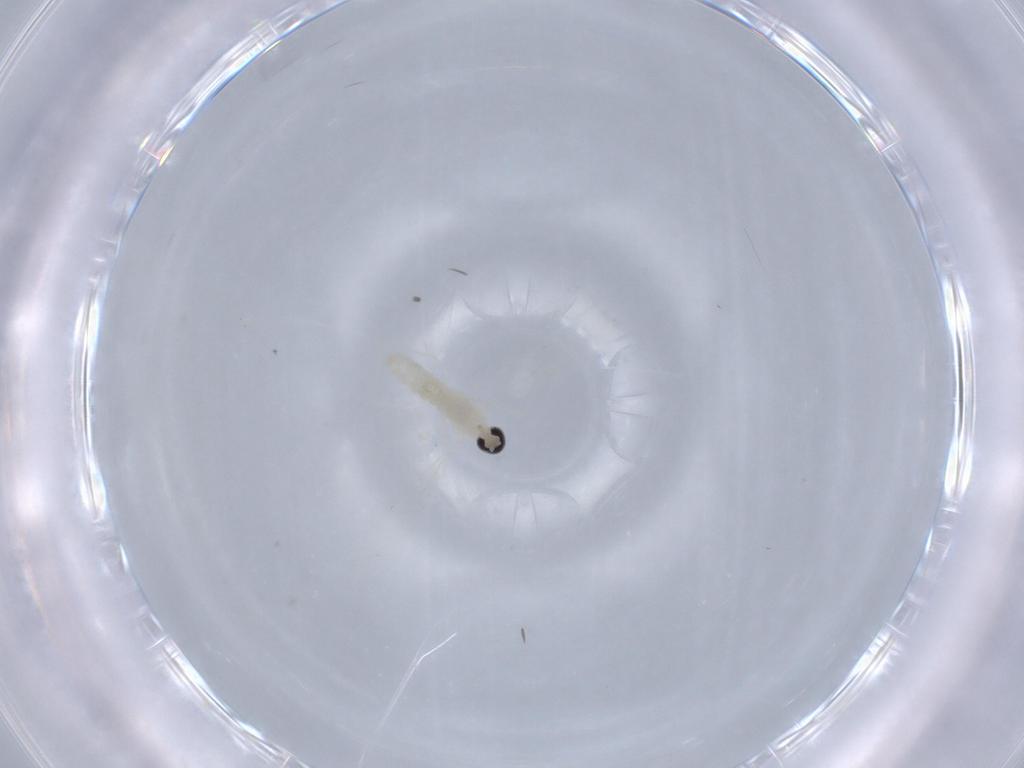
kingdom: Animalia
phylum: Arthropoda
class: Insecta
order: Diptera
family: Cecidomyiidae
